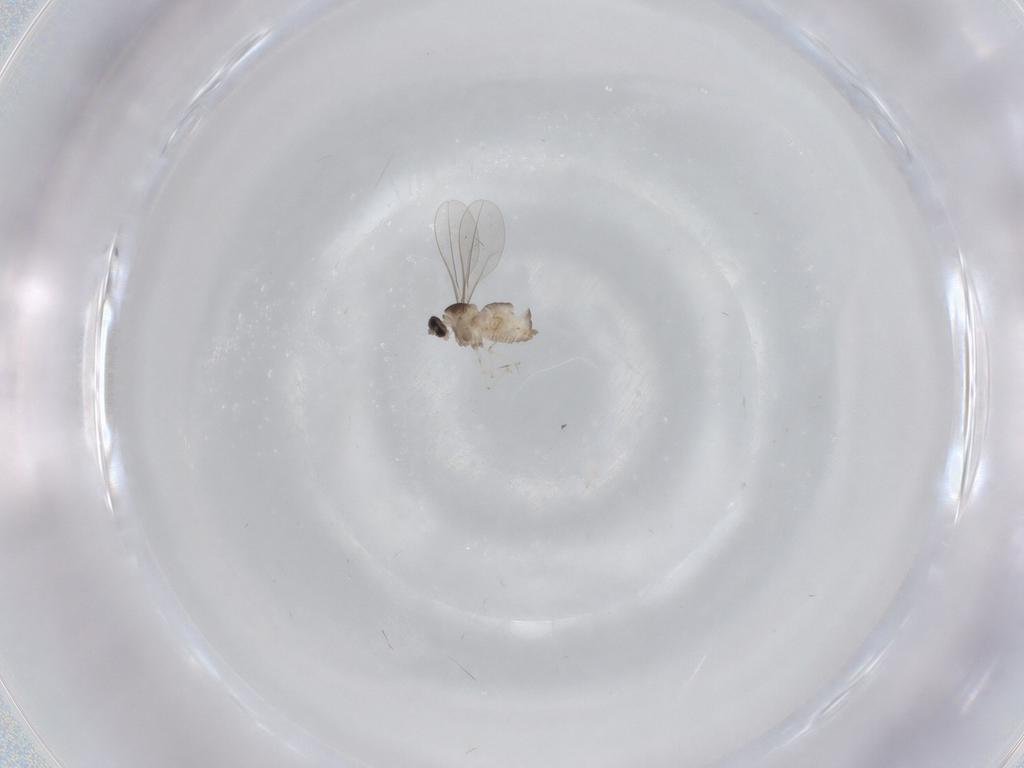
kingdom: Animalia
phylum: Arthropoda
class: Insecta
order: Diptera
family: Cecidomyiidae
